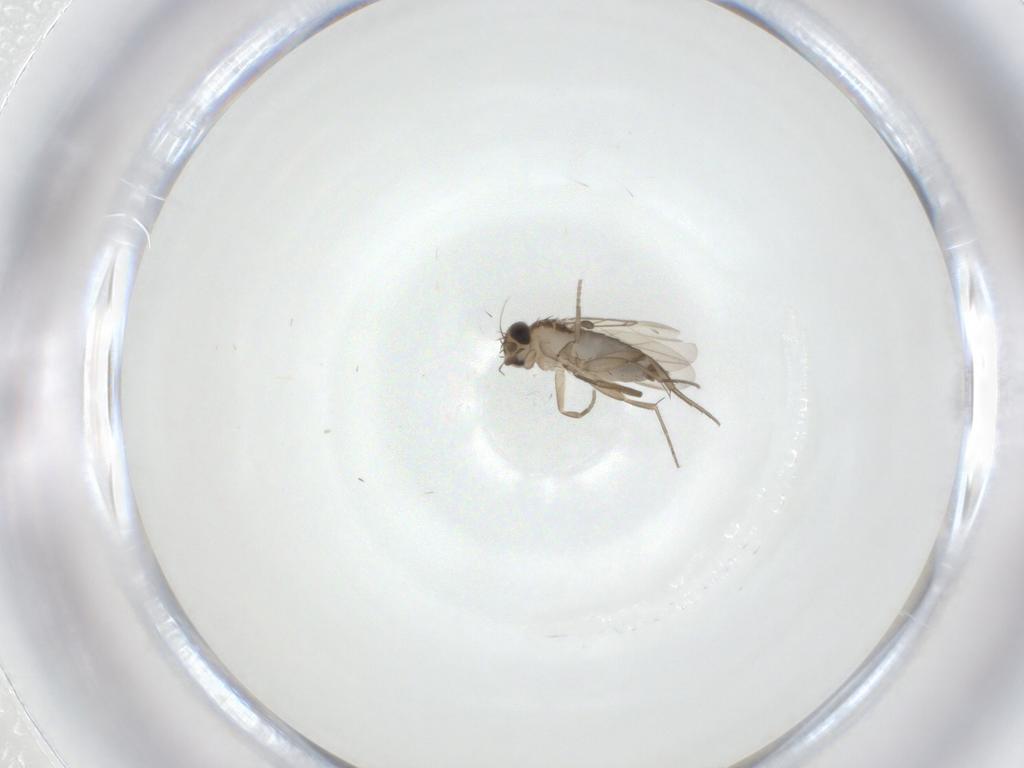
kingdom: Animalia
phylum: Arthropoda
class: Insecta
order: Diptera
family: Phoridae
